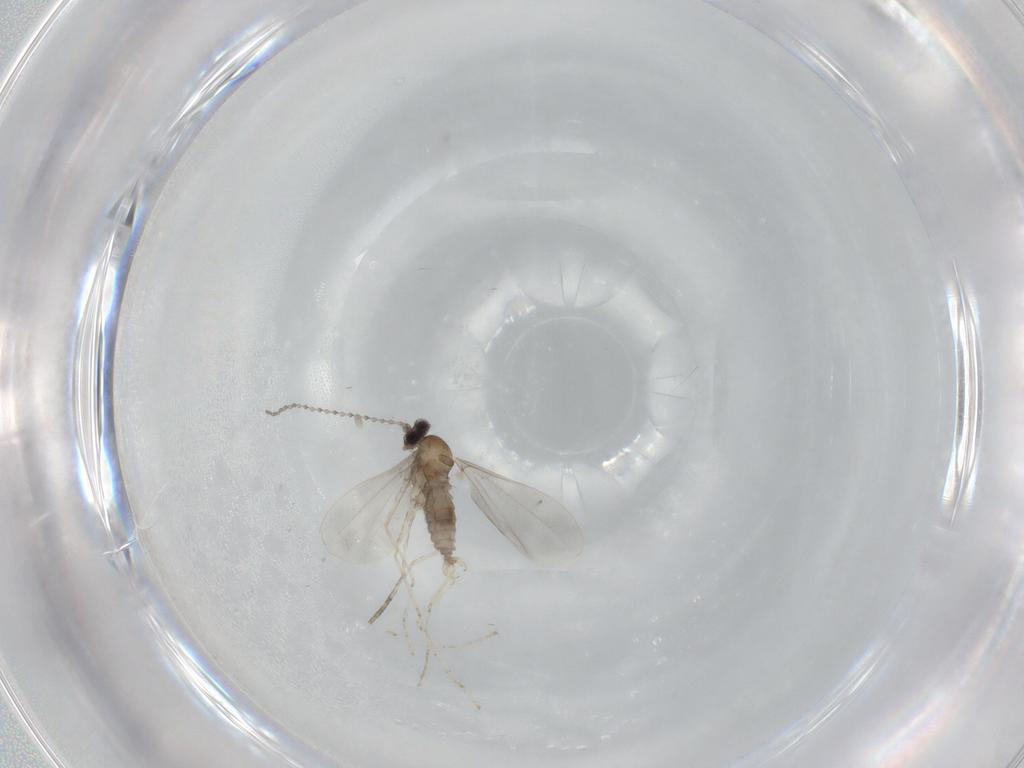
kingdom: Animalia
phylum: Arthropoda
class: Insecta
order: Diptera
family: Cecidomyiidae
